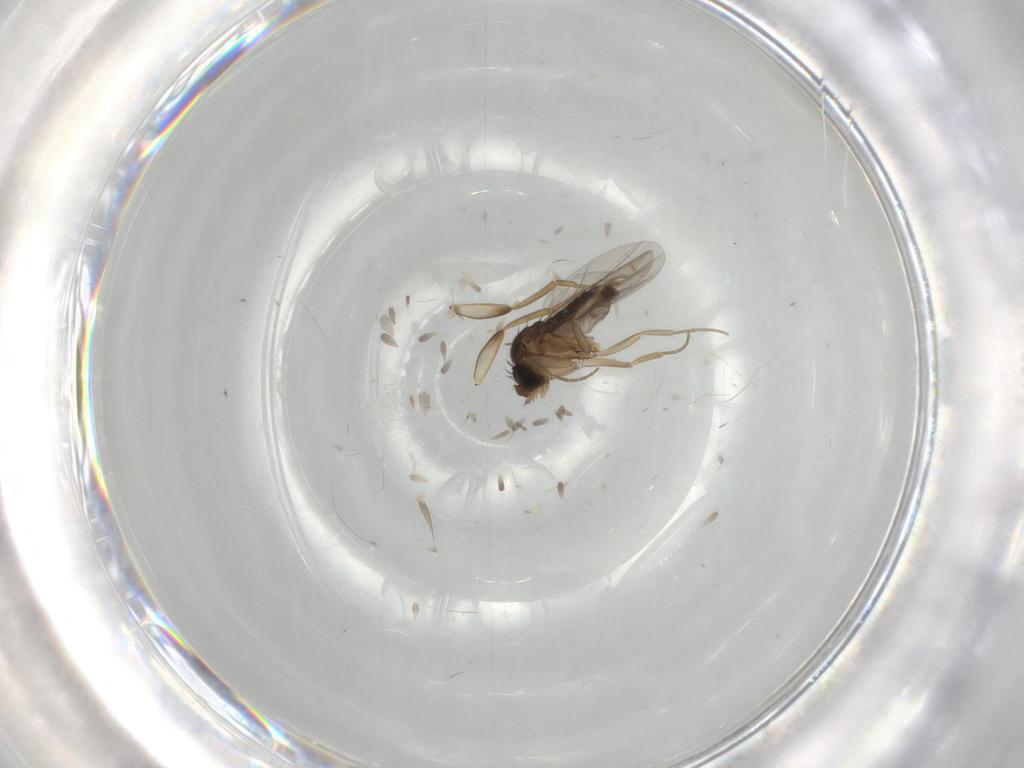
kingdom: Animalia
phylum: Arthropoda
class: Insecta
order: Diptera
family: Phoridae
